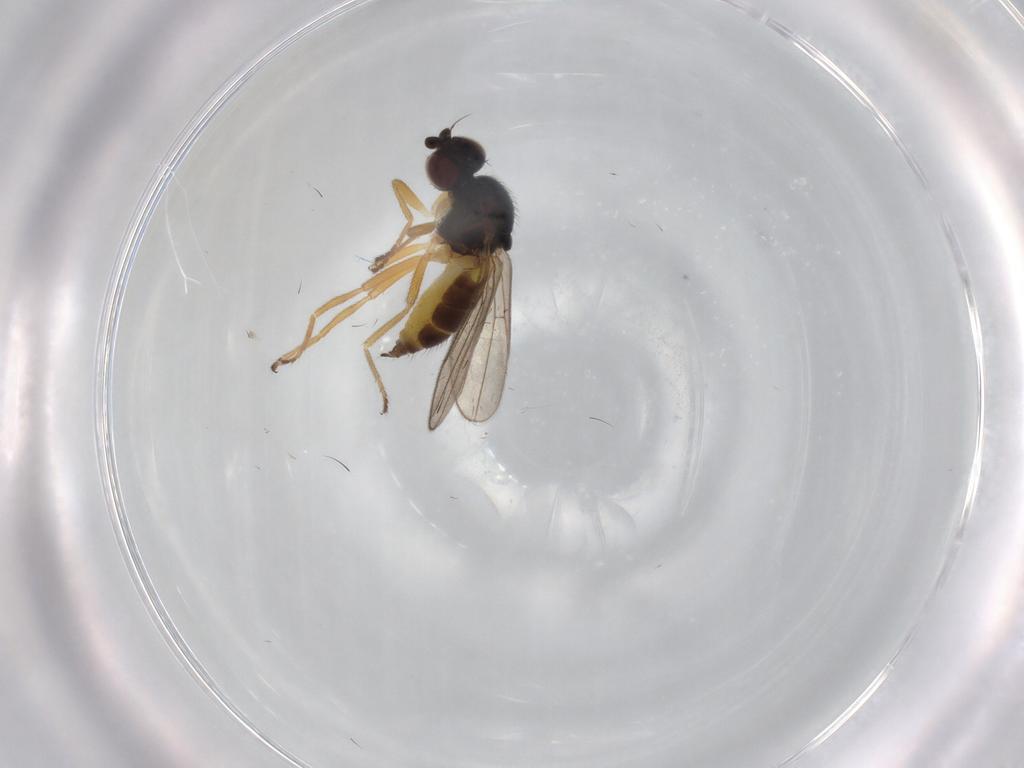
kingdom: Animalia
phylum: Arthropoda
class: Insecta
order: Diptera
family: Chloropidae
